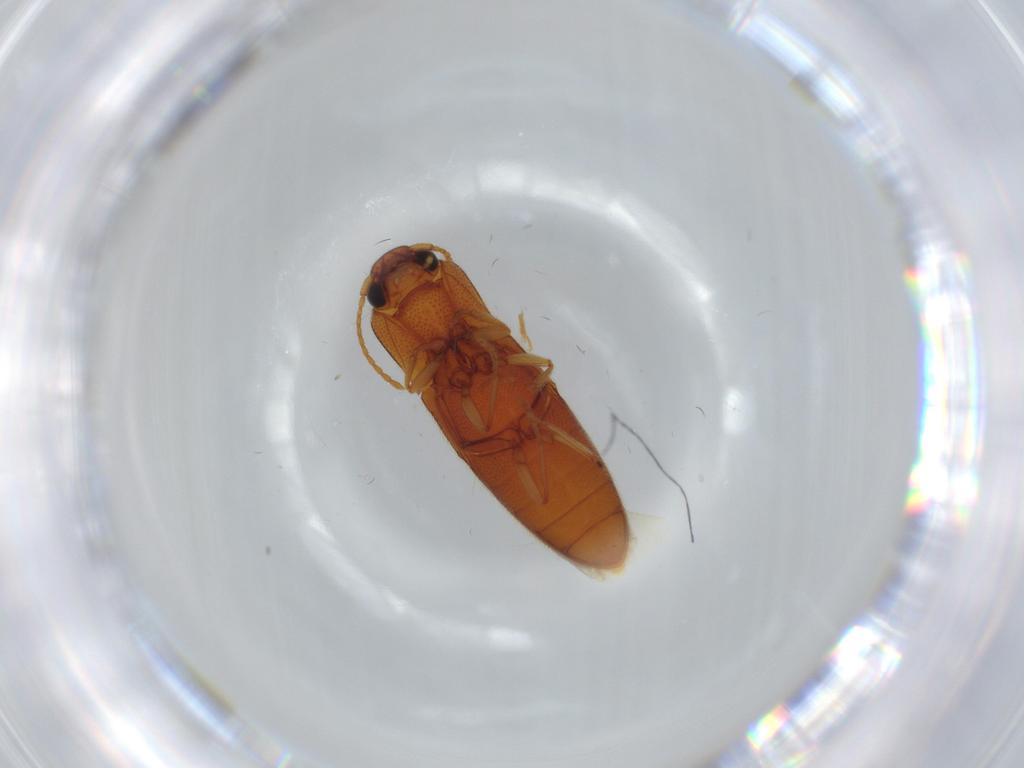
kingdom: Animalia
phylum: Arthropoda
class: Insecta
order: Coleoptera
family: Elateridae
